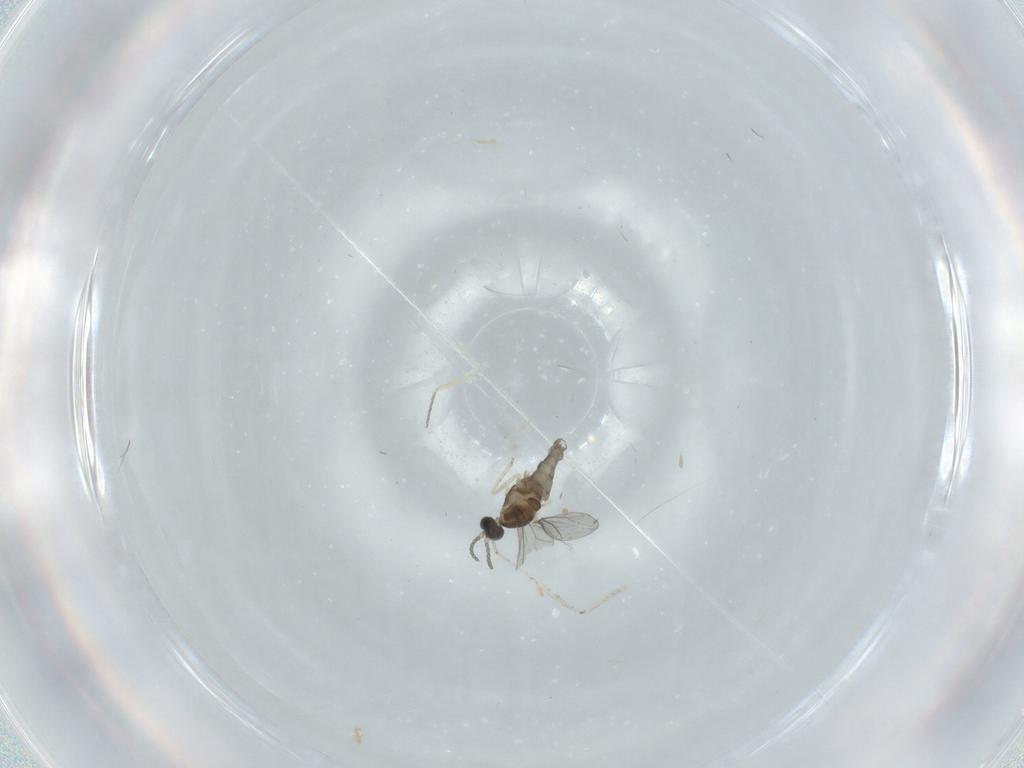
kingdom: Animalia
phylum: Arthropoda
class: Insecta
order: Diptera
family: Cecidomyiidae
